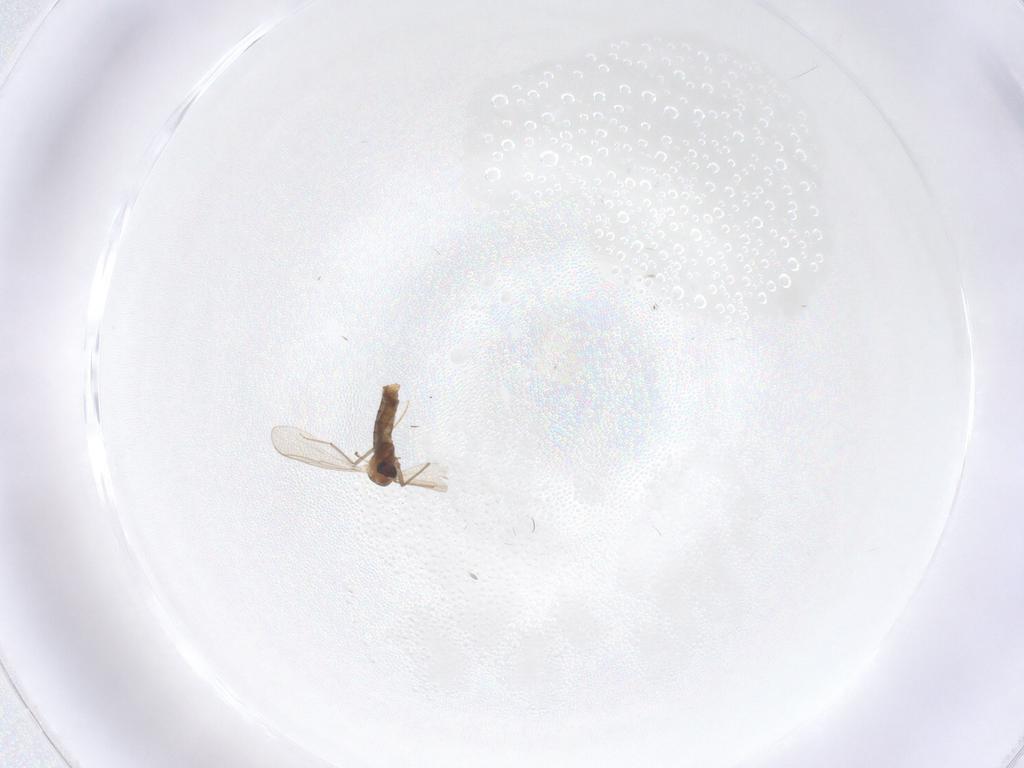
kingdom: Animalia
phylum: Arthropoda
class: Insecta
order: Diptera
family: Chironomidae
